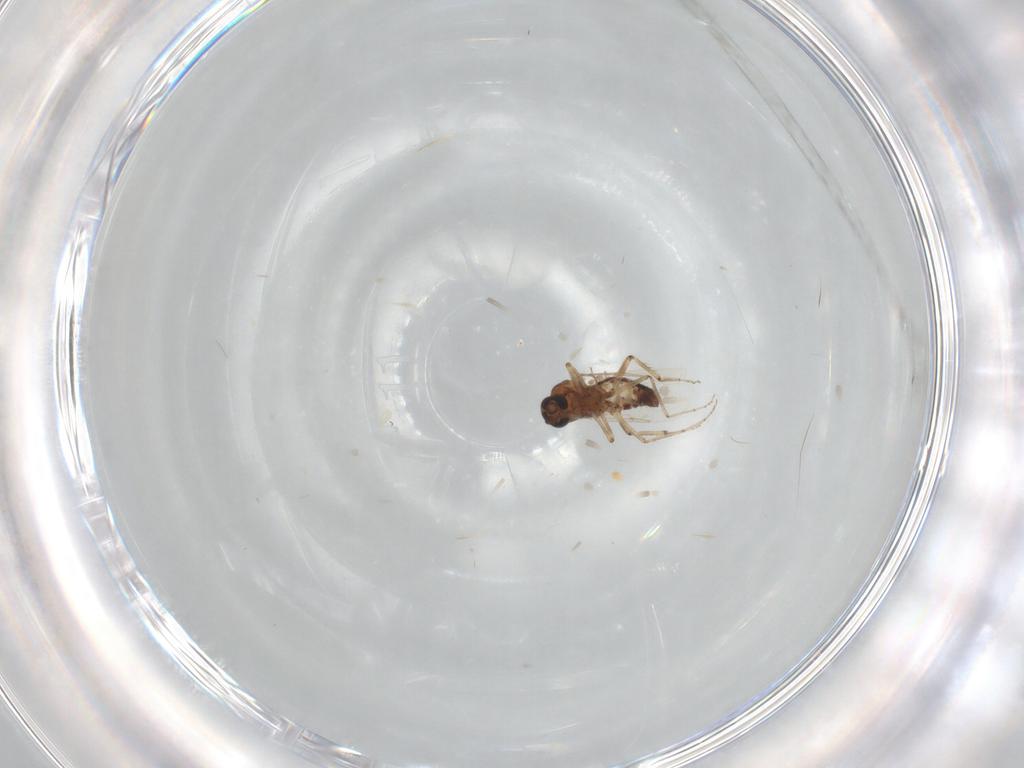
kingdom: Animalia
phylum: Arthropoda
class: Insecta
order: Diptera
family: Ceratopogonidae
